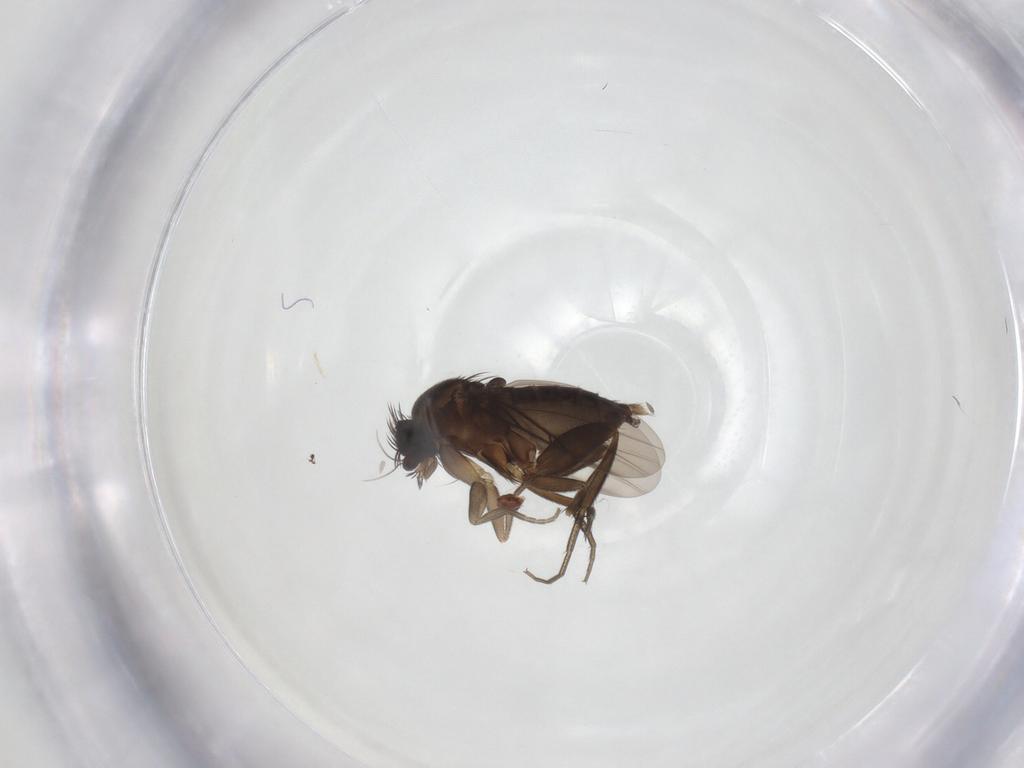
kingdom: Animalia
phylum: Arthropoda
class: Insecta
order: Diptera
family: Phoridae
